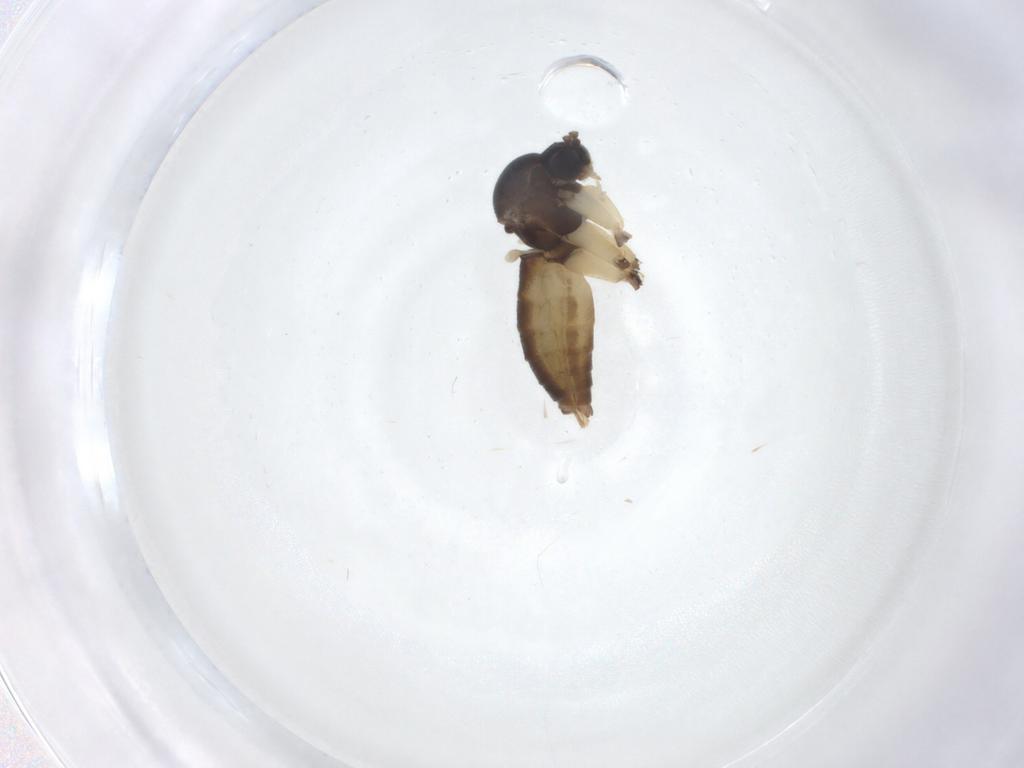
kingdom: Animalia
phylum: Arthropoda
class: Insecta
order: Diptera
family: Mycetophilidae
